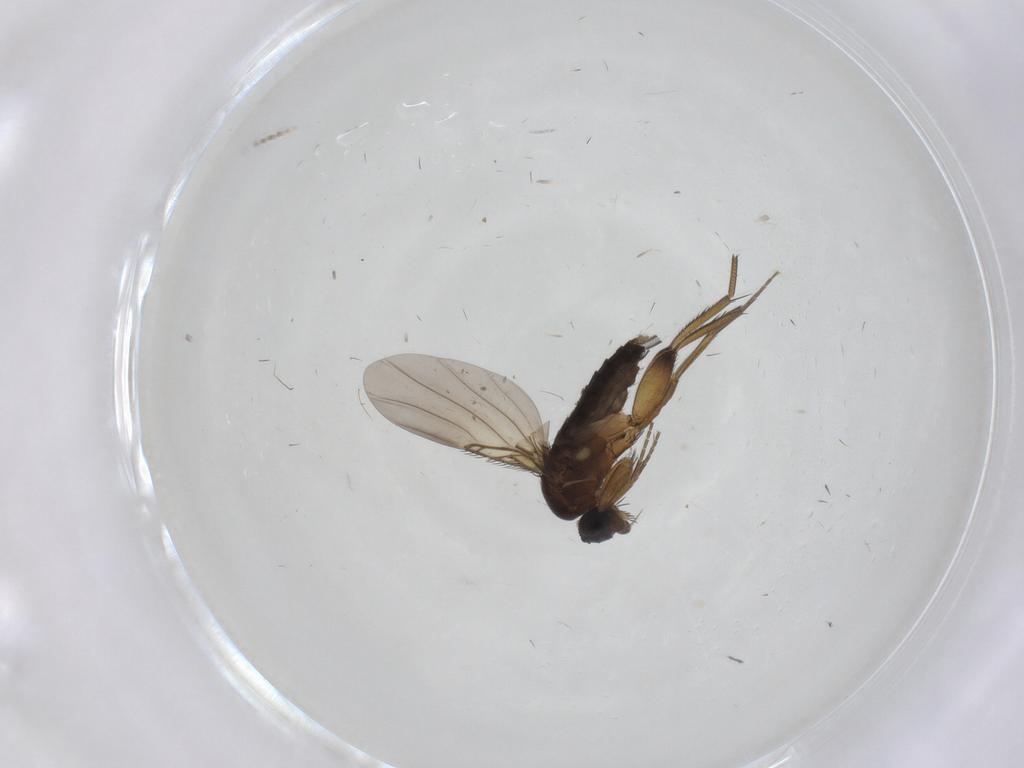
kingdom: Animalia
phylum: Arthropoda
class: Insecta
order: Diptera
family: Phoridae
